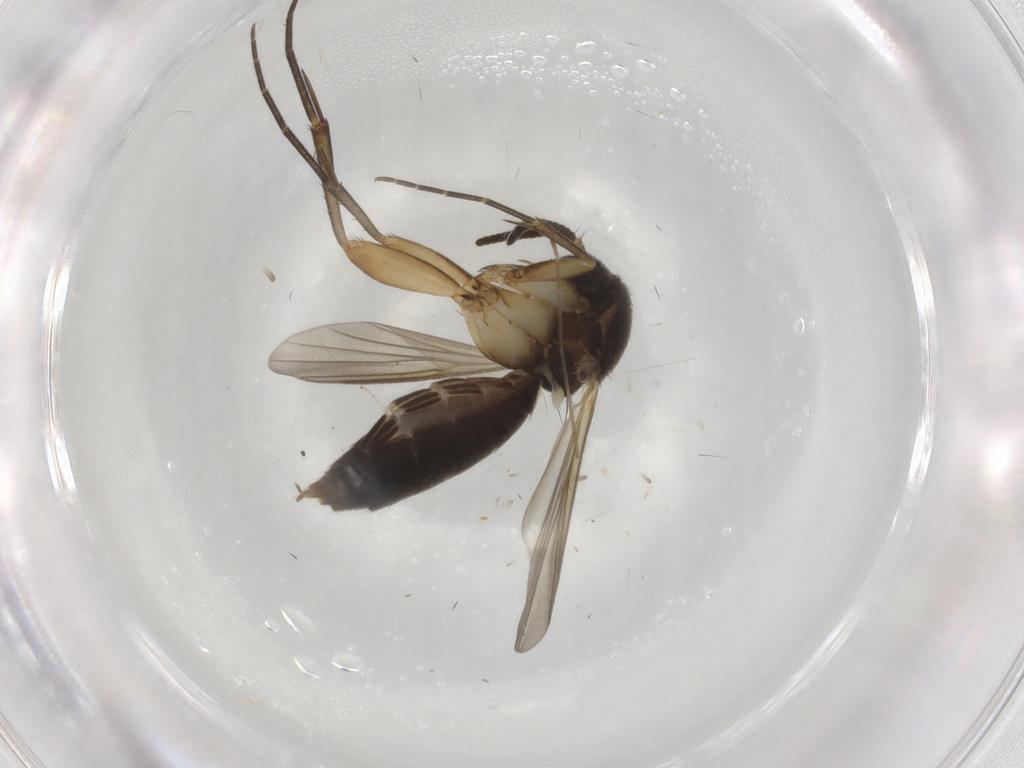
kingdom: Animalia
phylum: Arthropoda
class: Insecta
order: Diptera
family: Mycetophilidae
